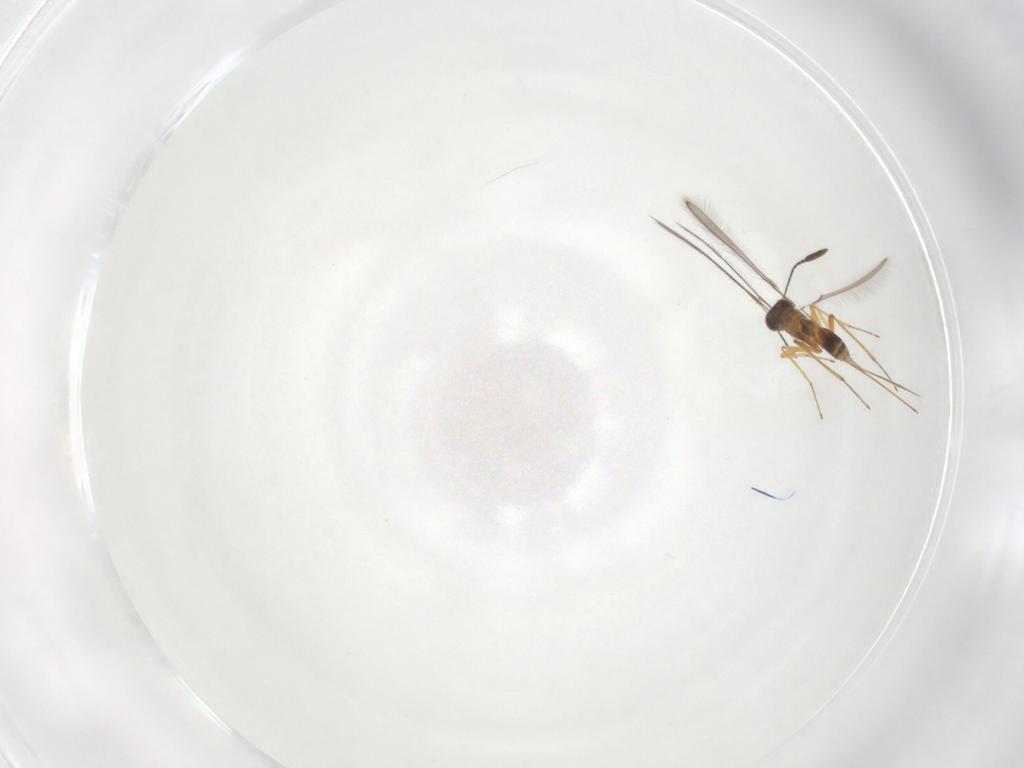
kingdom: Animalia
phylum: Arthropoda
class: Insecta
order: Hymenoptera
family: Mymaridae
